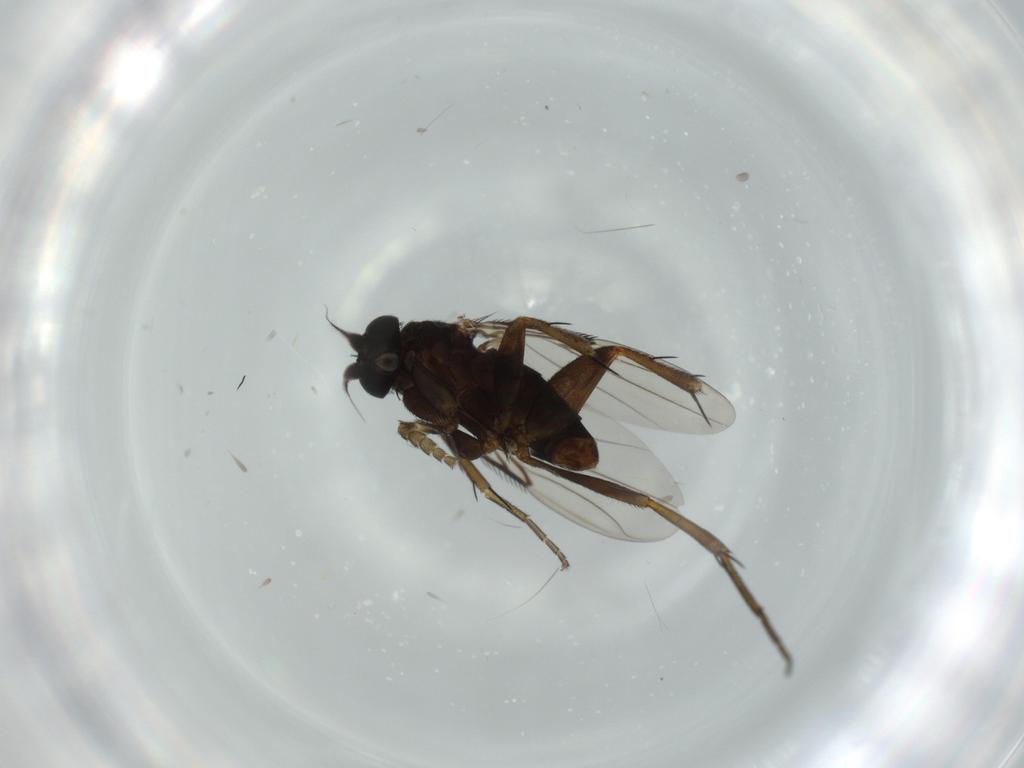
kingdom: Animalia
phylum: Arthropoda
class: Insecta
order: Diptera
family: Phoridae
